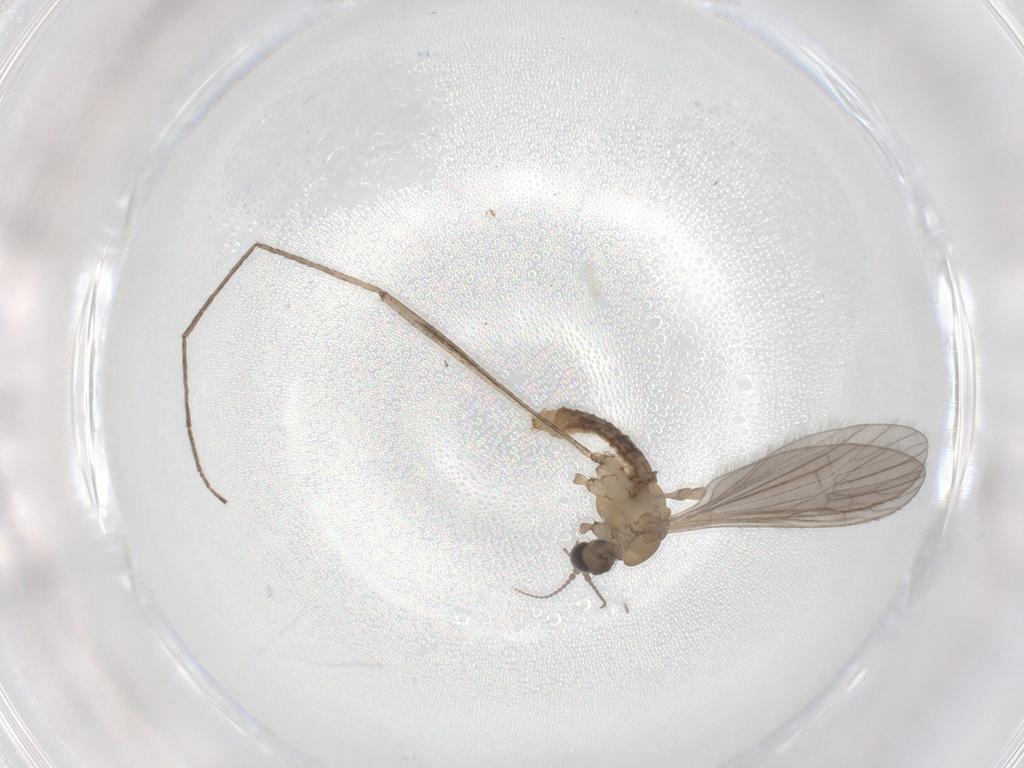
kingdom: Animalia
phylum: Arthropoda
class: Insecta
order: Diptera
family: Limoniidae
